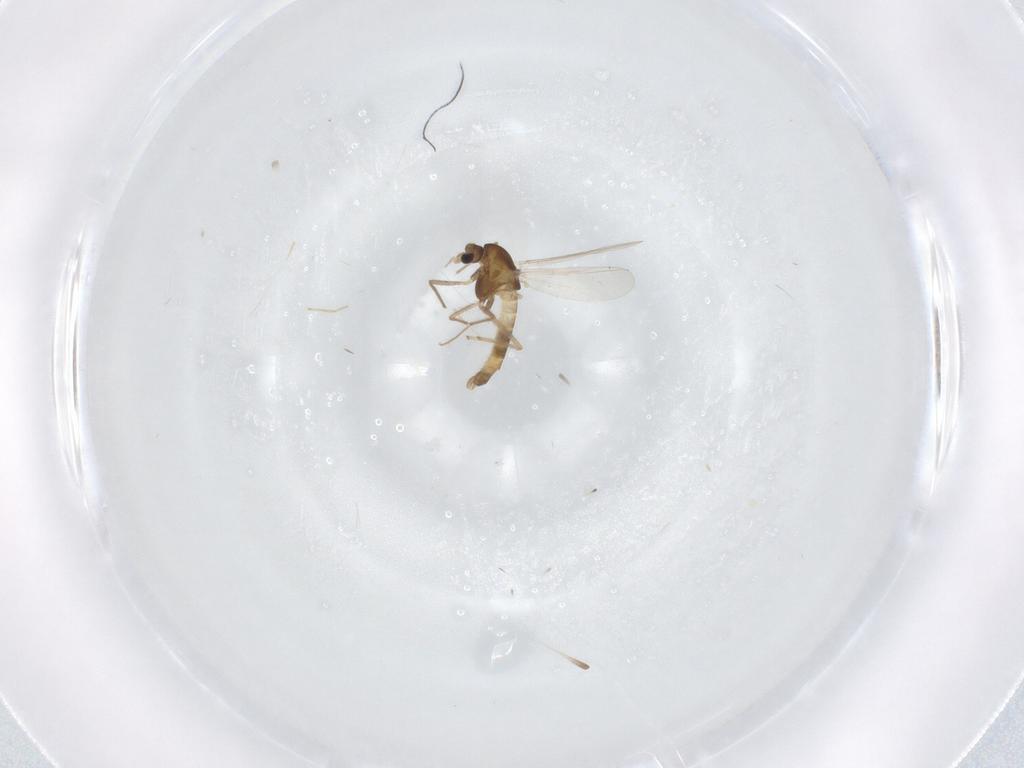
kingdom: Animalia
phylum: Arthropoda
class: Insecta
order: Diptera
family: Chironomidae
